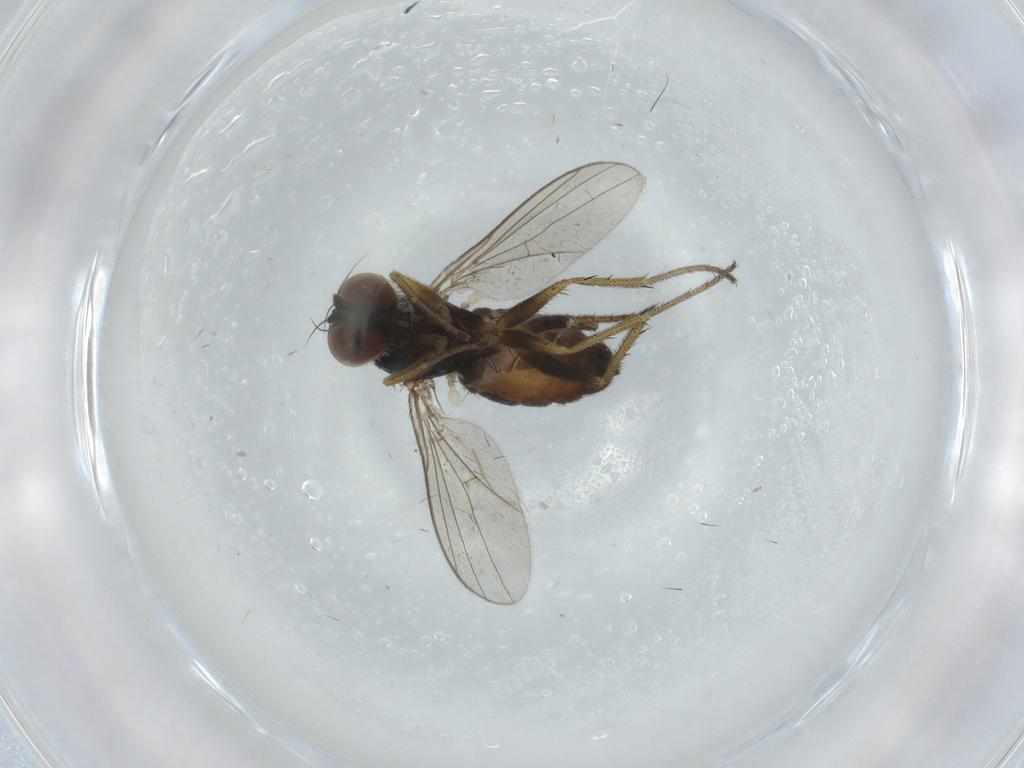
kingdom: Animalia
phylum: Arthropoda
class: Insecta
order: Diptera
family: Chironomidae
